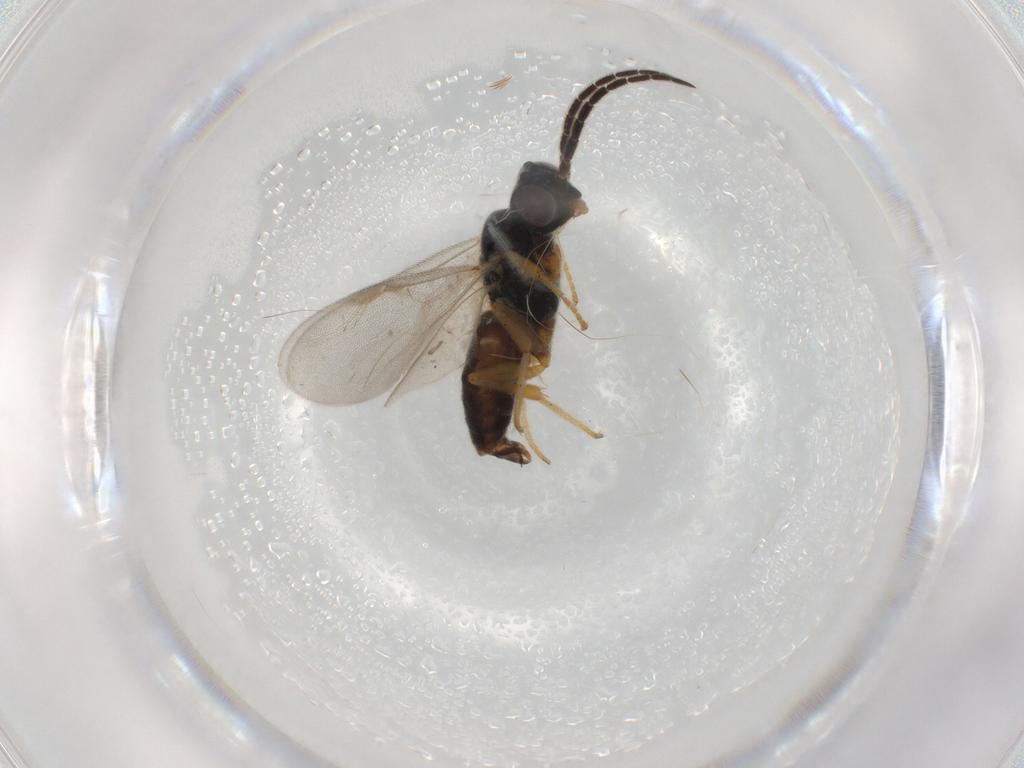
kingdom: Animalia
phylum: Arthropoda
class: Insecta
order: Hymenoptera
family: Dryinidae
